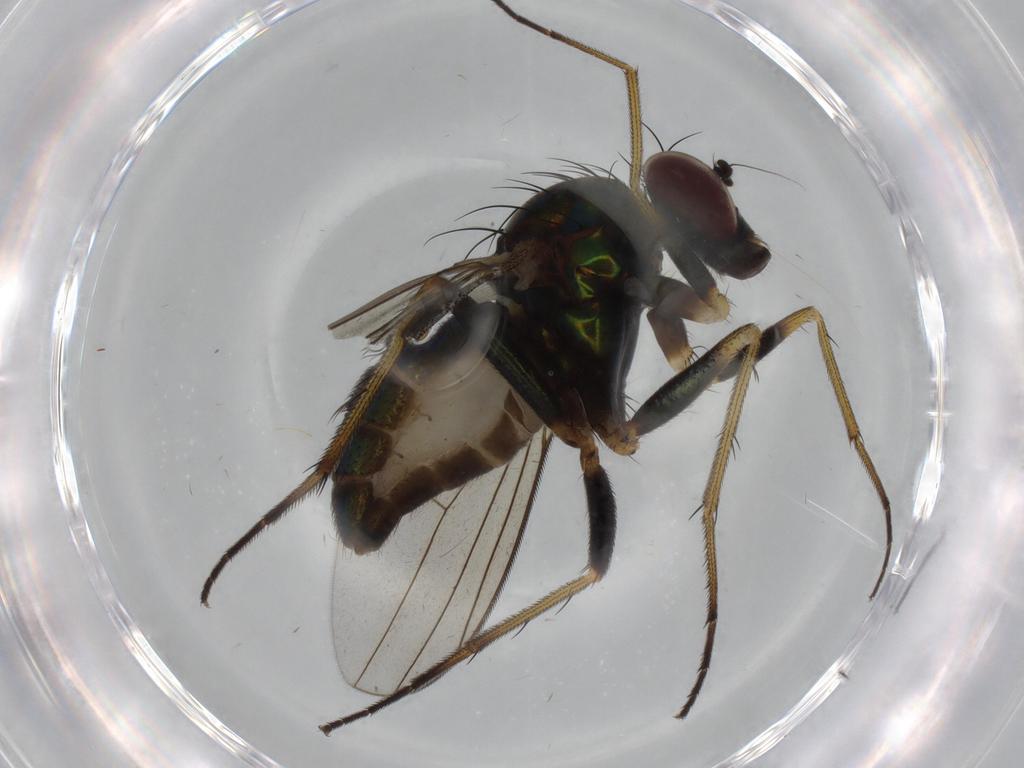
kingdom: Animalia
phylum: Arthropoda
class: Insecta
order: Diptera
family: Dolichopodidae
